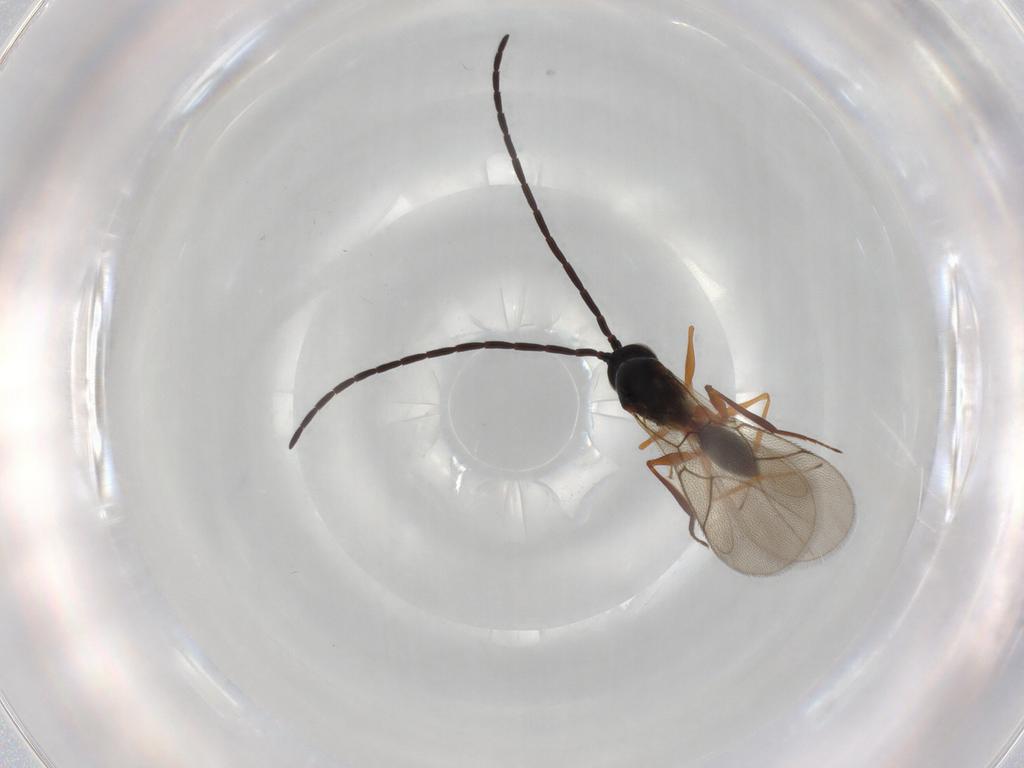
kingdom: Animalia
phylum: Arthropoda
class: Insecta
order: Hymenoptera
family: Figitidae
